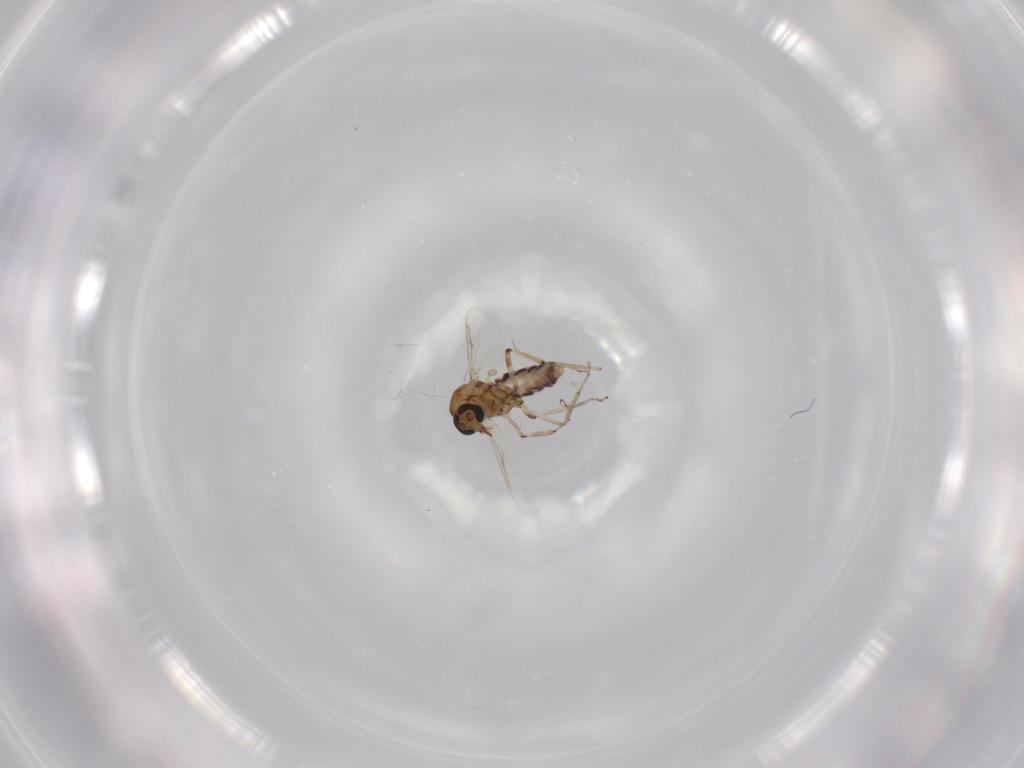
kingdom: Animalia
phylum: Arthropoda
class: Insecta
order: Diptera
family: Ceratopogonidae
